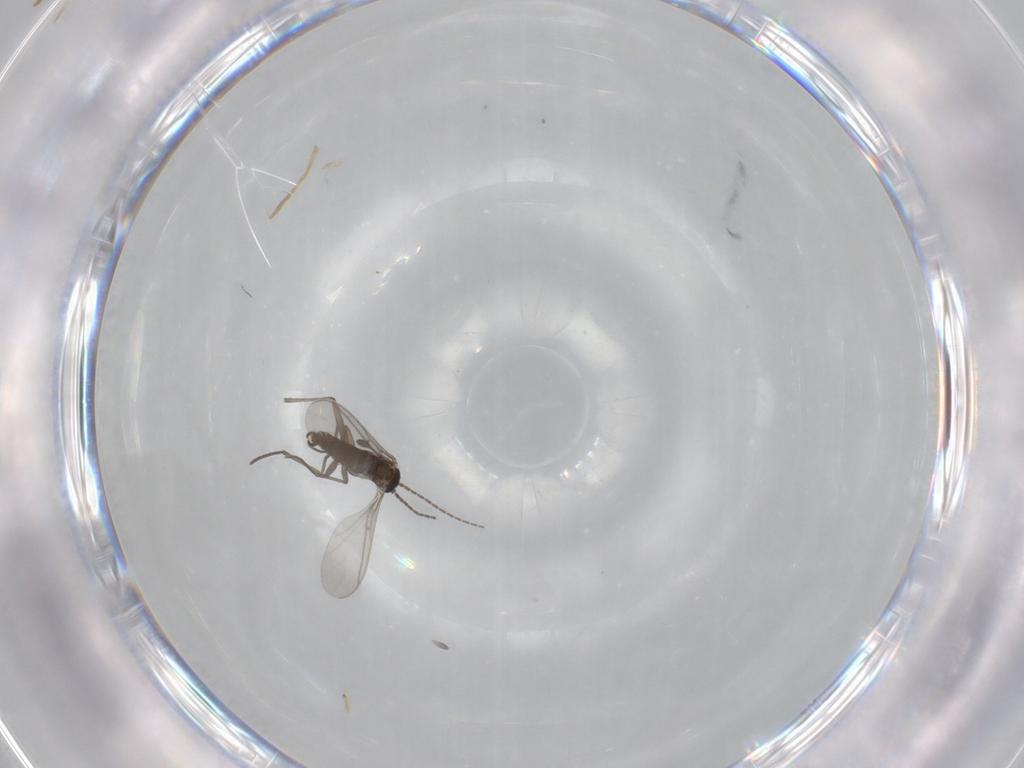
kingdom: Animalia
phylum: Arthropoda
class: Insecta
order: Diptera
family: Sciaridae
